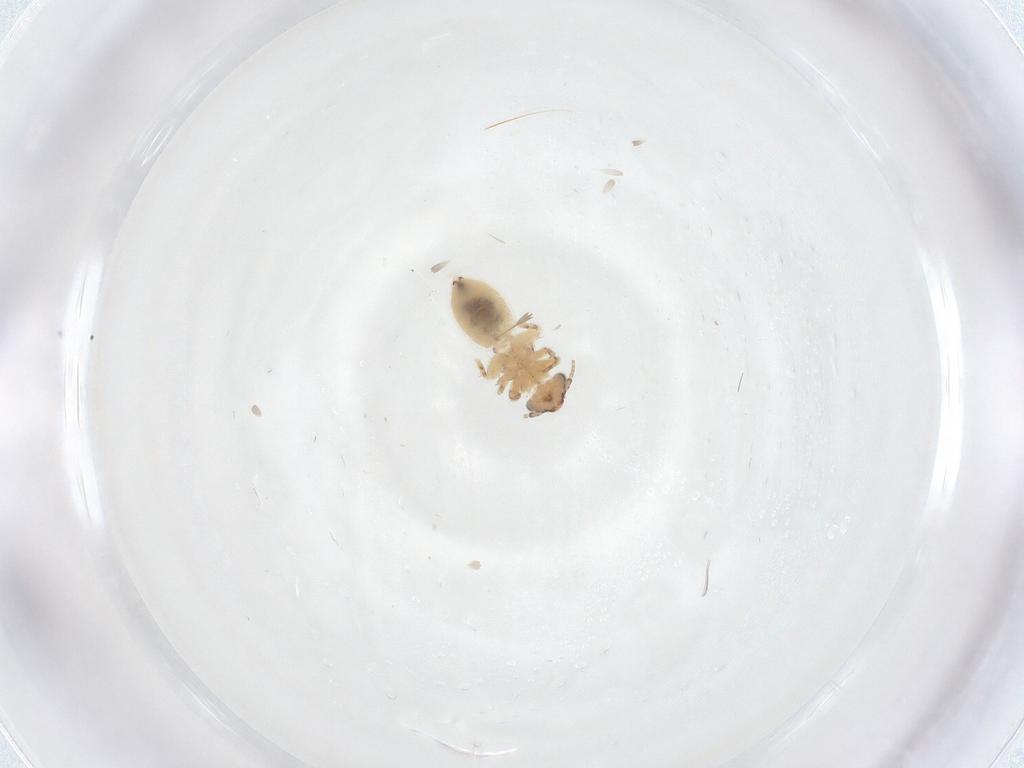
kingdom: Animalia
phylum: Arthropoda
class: Insecta
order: Psocodea
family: Lepidopsocidae
